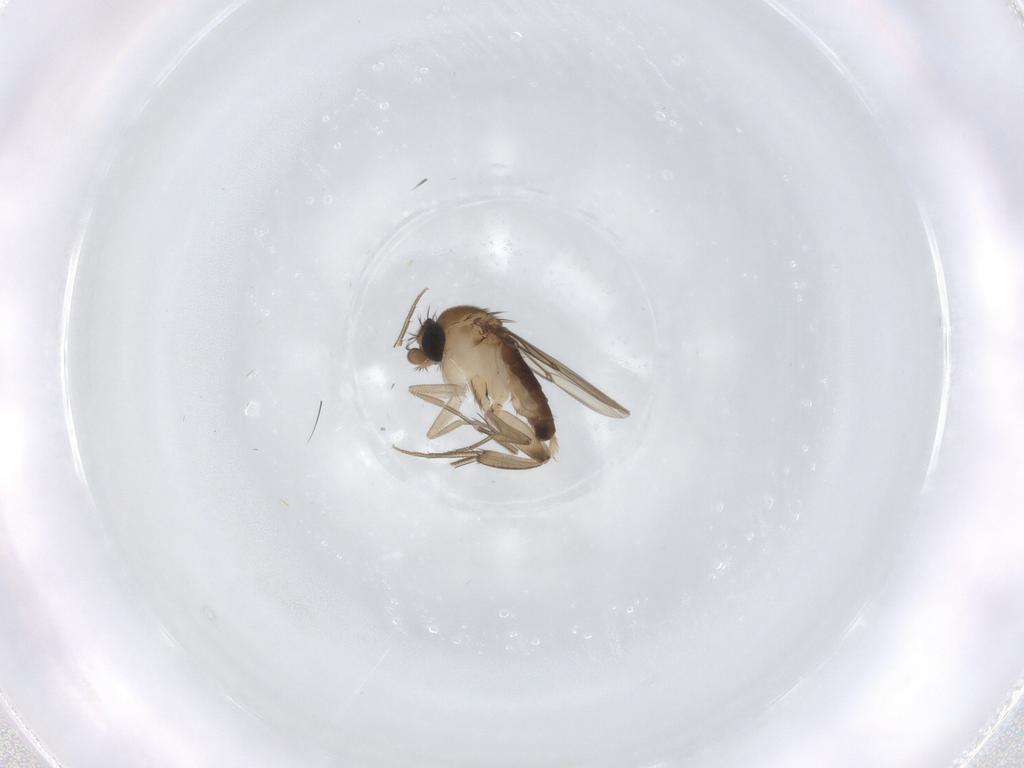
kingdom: Animalia
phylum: Arthropoda
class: Insecta
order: Diptera
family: Phoridae
